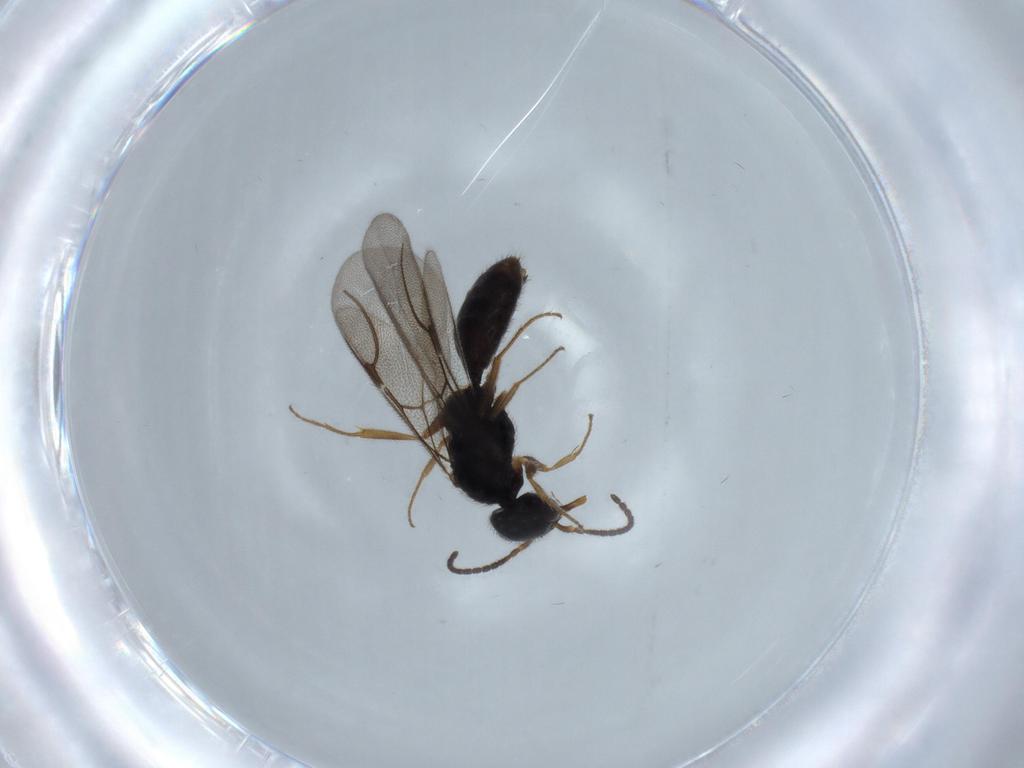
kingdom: Animalia
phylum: Arthropoda
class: Insecta
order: Hymenoptera
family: Bethylidae
